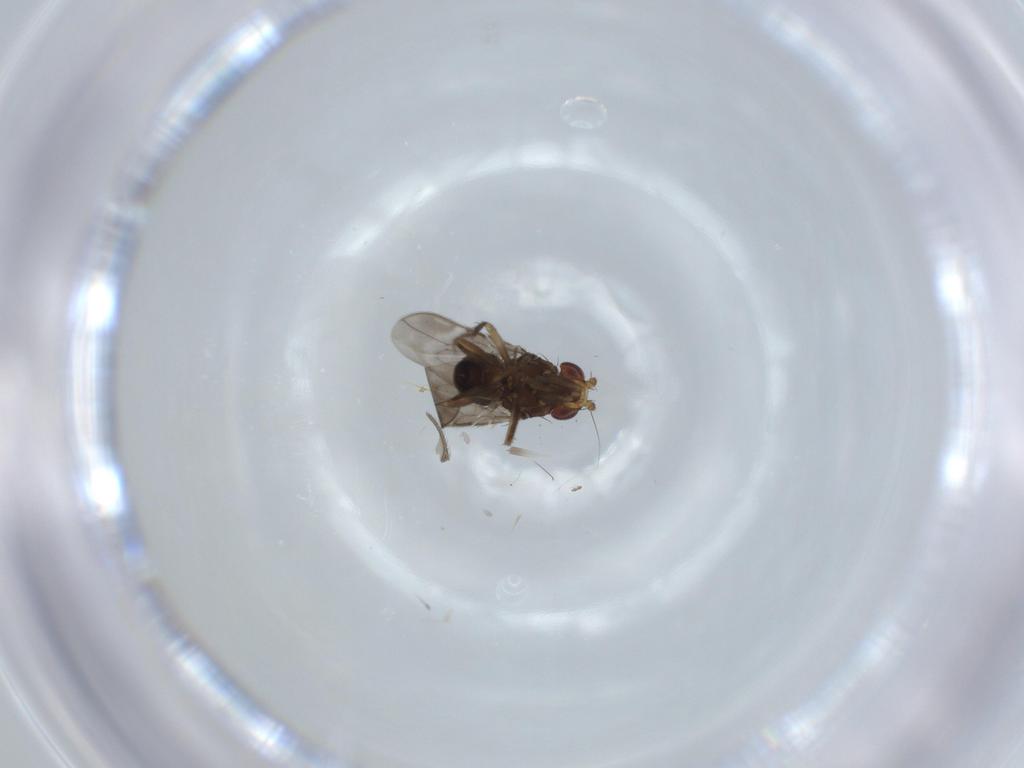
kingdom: Animalia
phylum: Arthropoda
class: Insecta
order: Diptera
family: Sphaeroceridae
